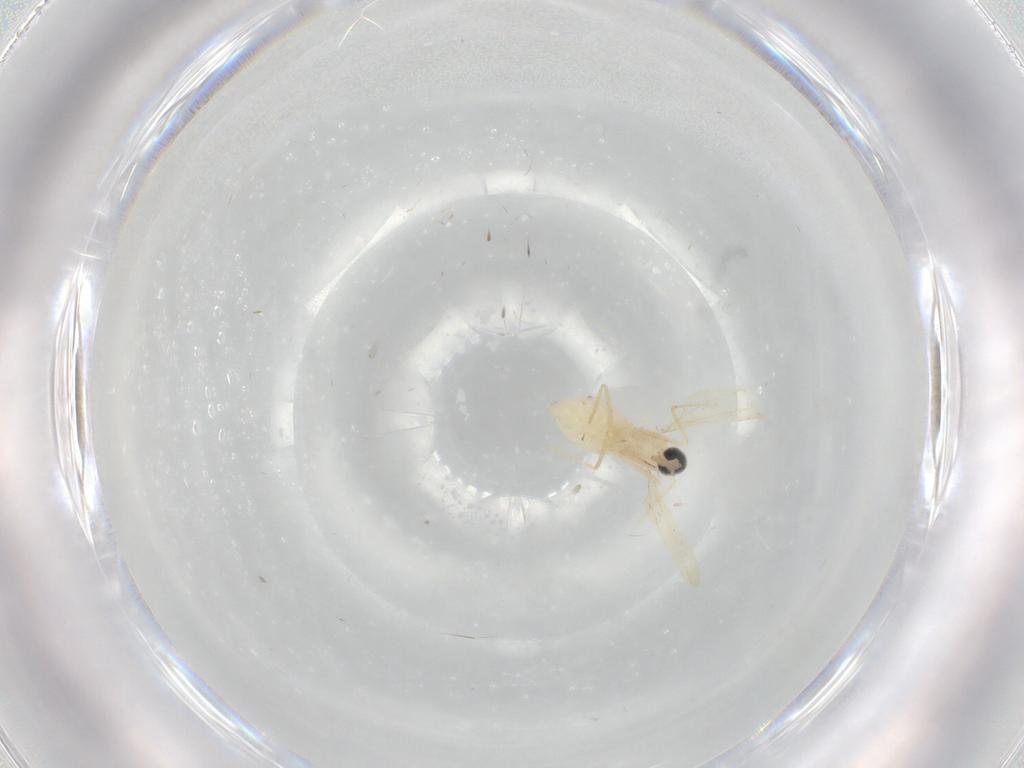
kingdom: Animalia
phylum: Arthropoda
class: Insecta
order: Diptera
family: Cecidomyiidae
